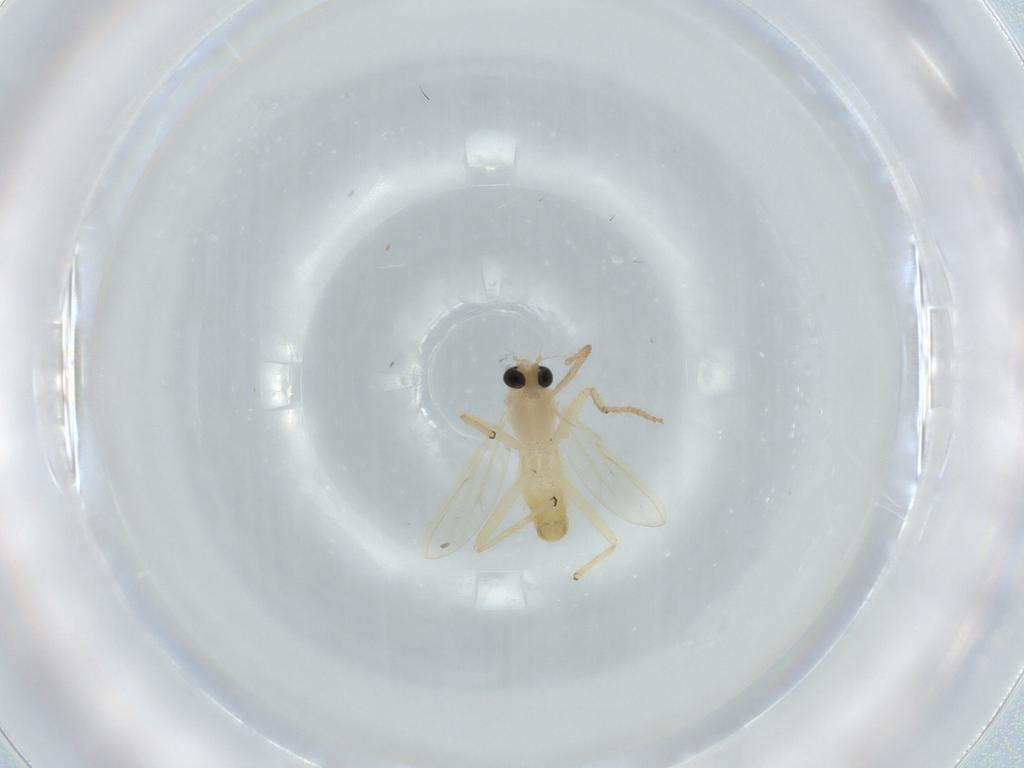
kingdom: Animalia
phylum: Arthropoda
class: Insecta
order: Diptera
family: Chironomidae
